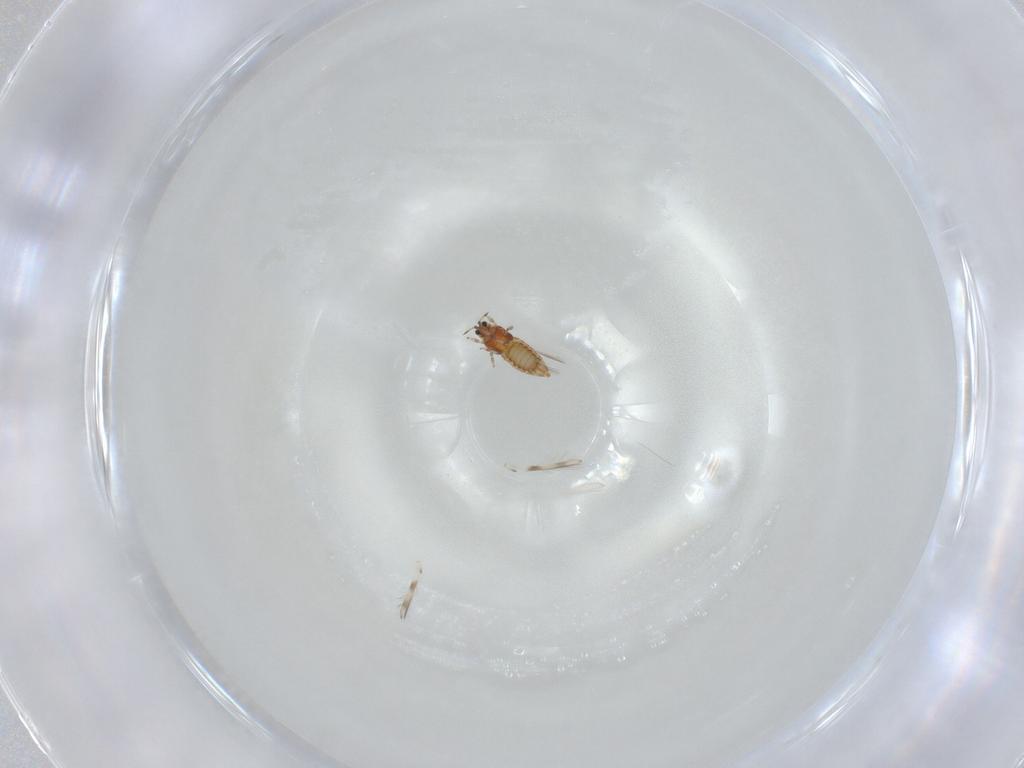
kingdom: Animalia
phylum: Arthropoda
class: Insecta
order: Thysanoptera
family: Thripidae
